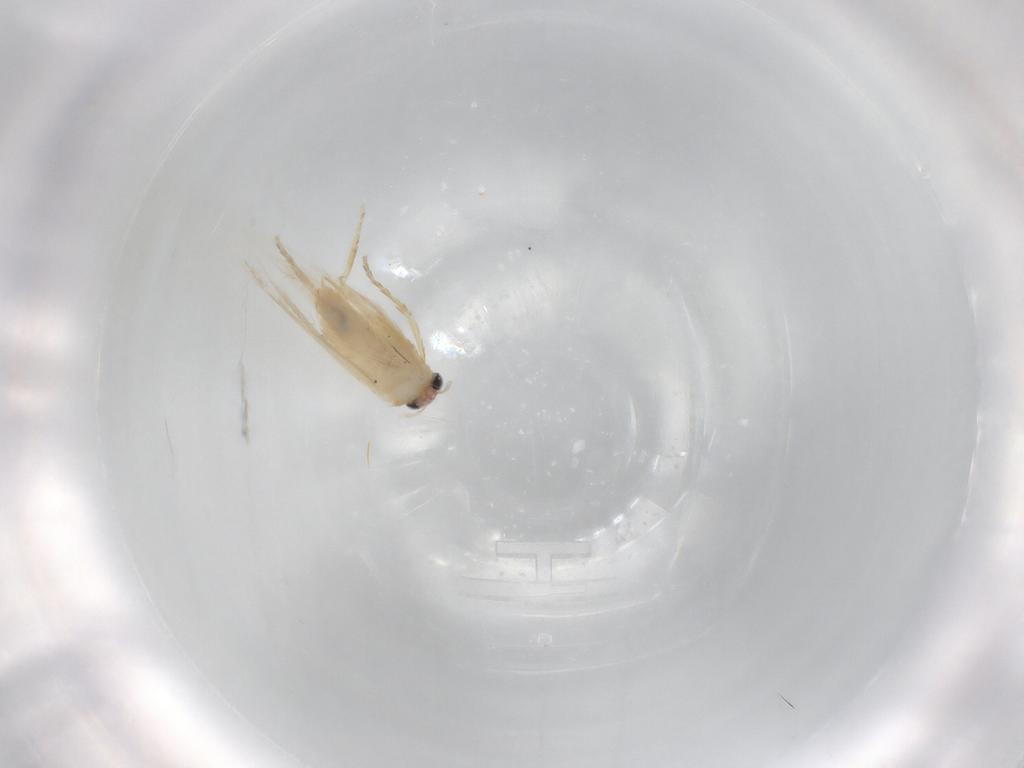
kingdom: Animalia
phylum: Arthropoda
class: Insecta
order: Lepidoptera
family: Nepticulidae
